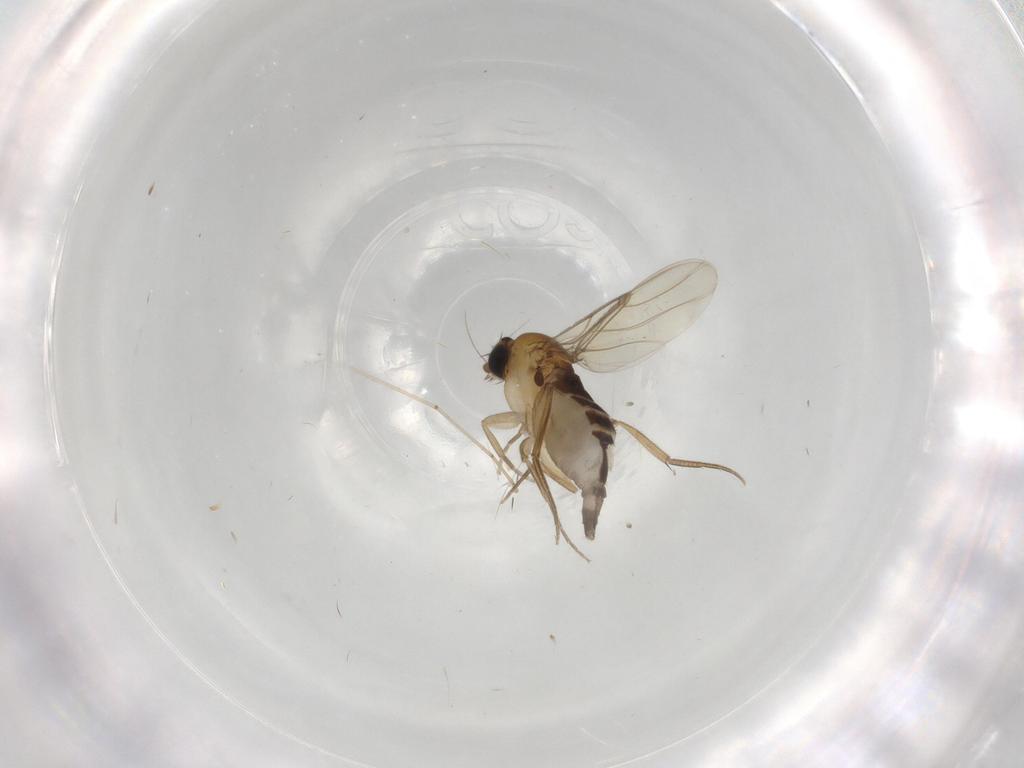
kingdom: Animalia
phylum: Arthropoda
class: Insecta
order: Diptera
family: Phoridae
